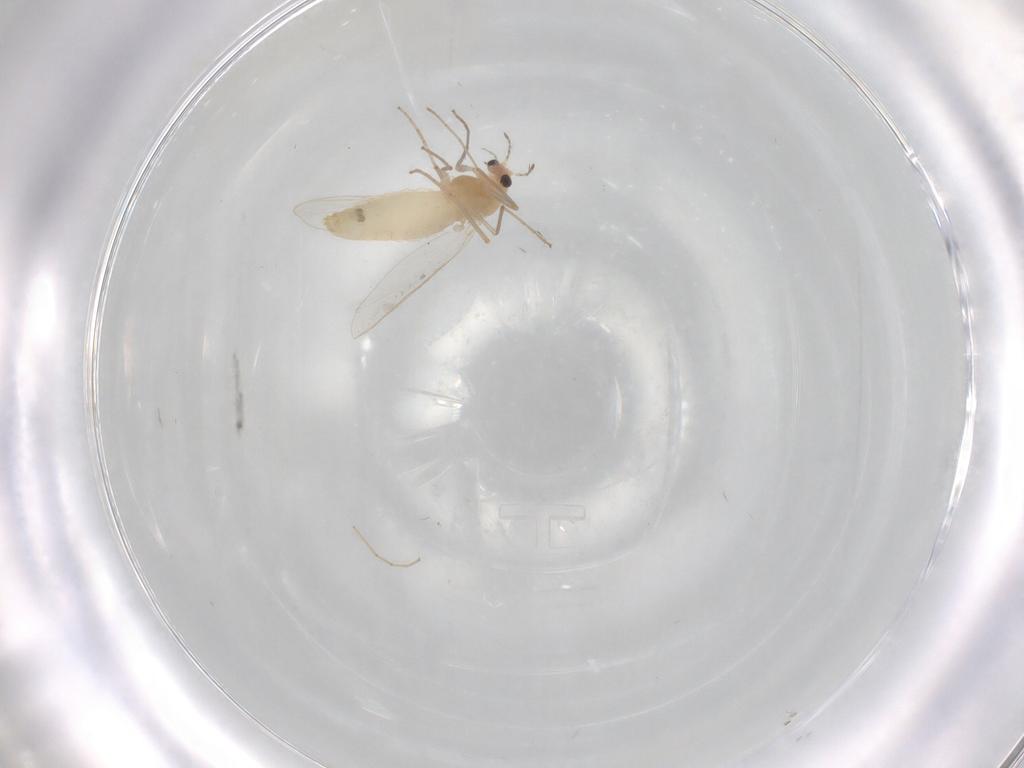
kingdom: Animalia
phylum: Arthropoda
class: Insecta
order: Diptera
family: Chironomidae
